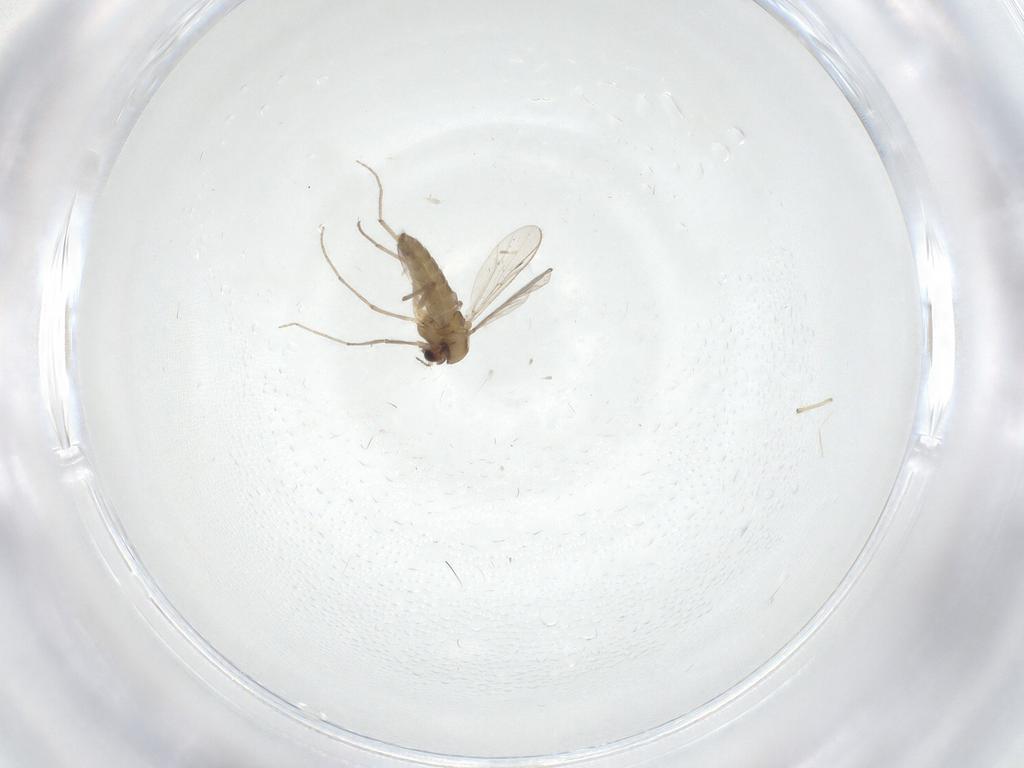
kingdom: Animalia
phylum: Arthropoda
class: Insecta
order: Diptera
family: Chironomidae
